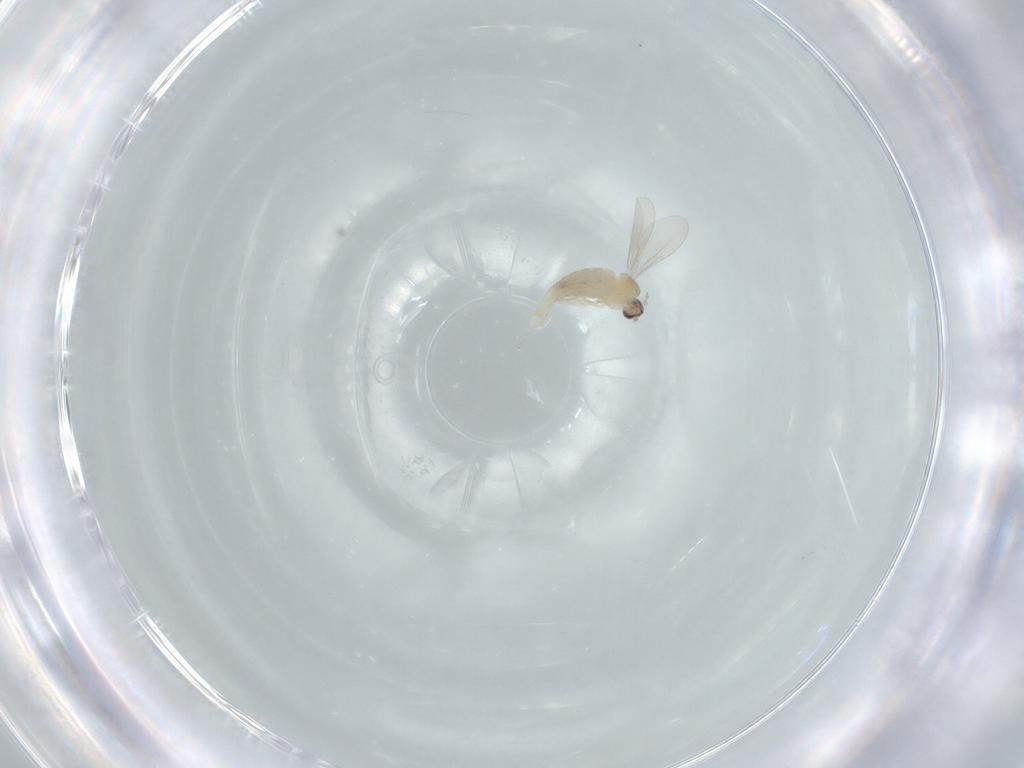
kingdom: Animalia
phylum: Arthropoda
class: Insecta
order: Diptera
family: Cecidomyiidae
